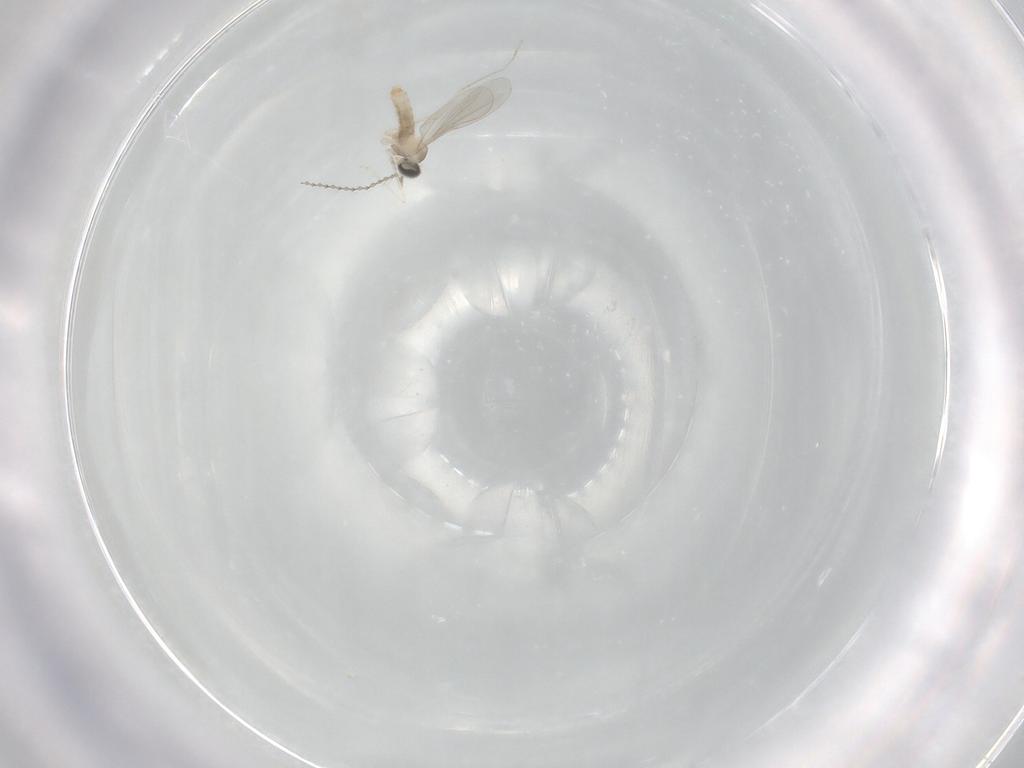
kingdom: Animalia
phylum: Arthropoda
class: Insecta
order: Diptera
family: Cecidomyiidae
